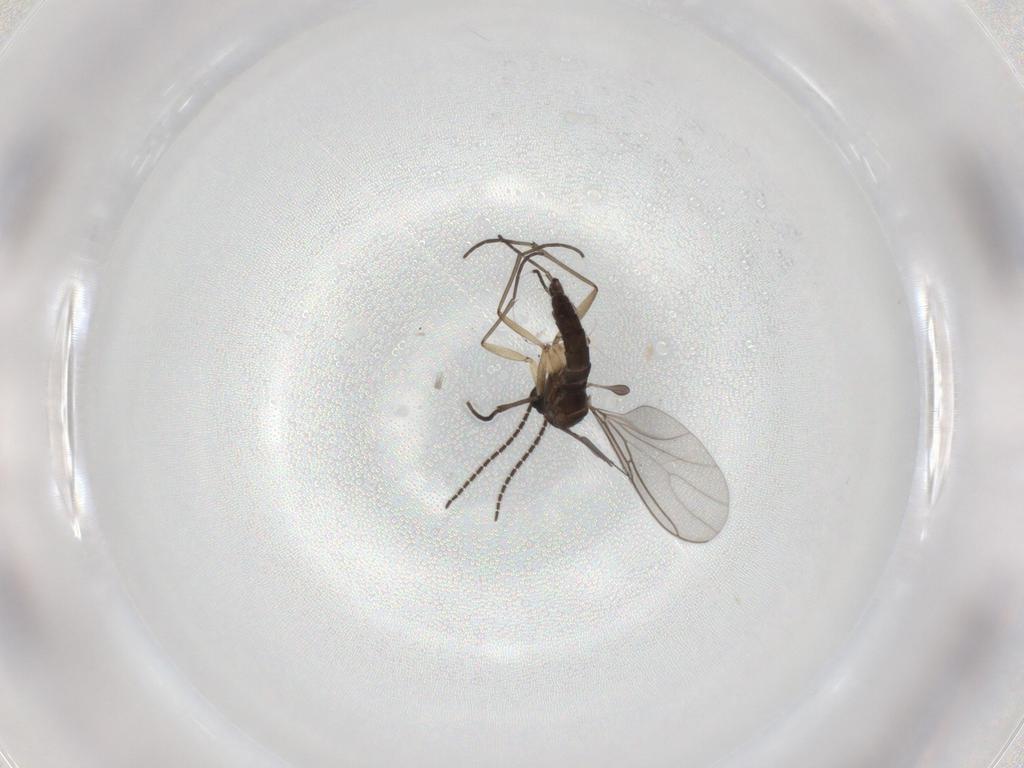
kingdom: Animalia
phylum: Arthropoda
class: Insecta
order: Diptera
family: Sciaridae
